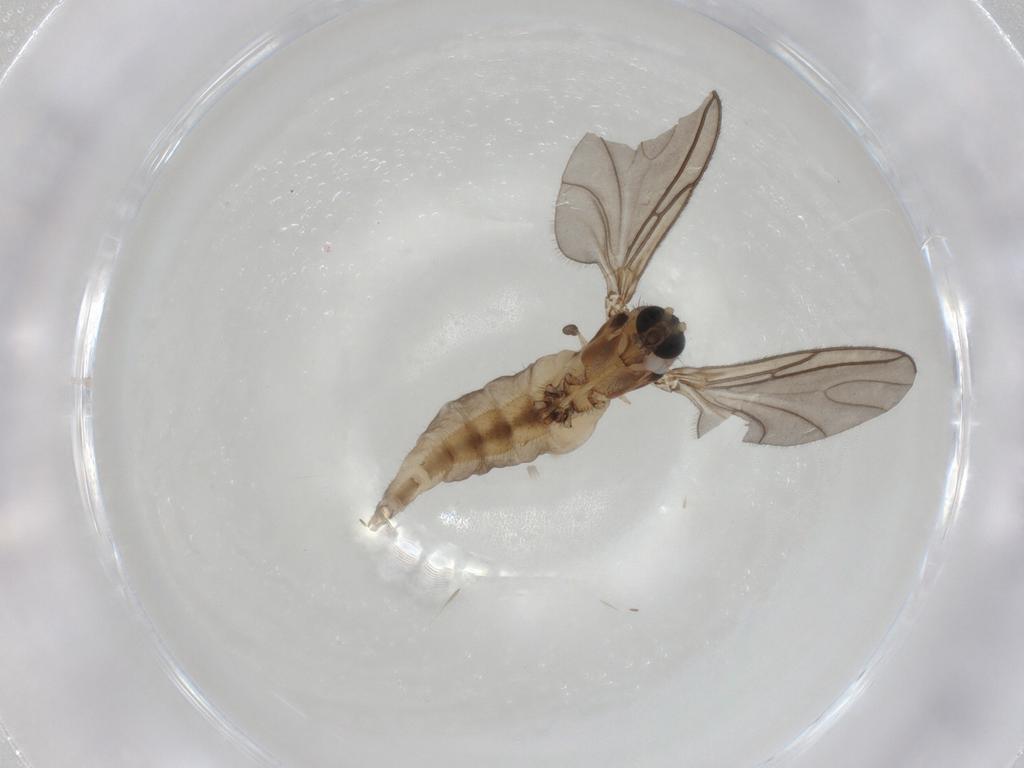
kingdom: Animalia
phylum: Arthropoda
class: Insecta
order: Diptera
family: Sciaridae
